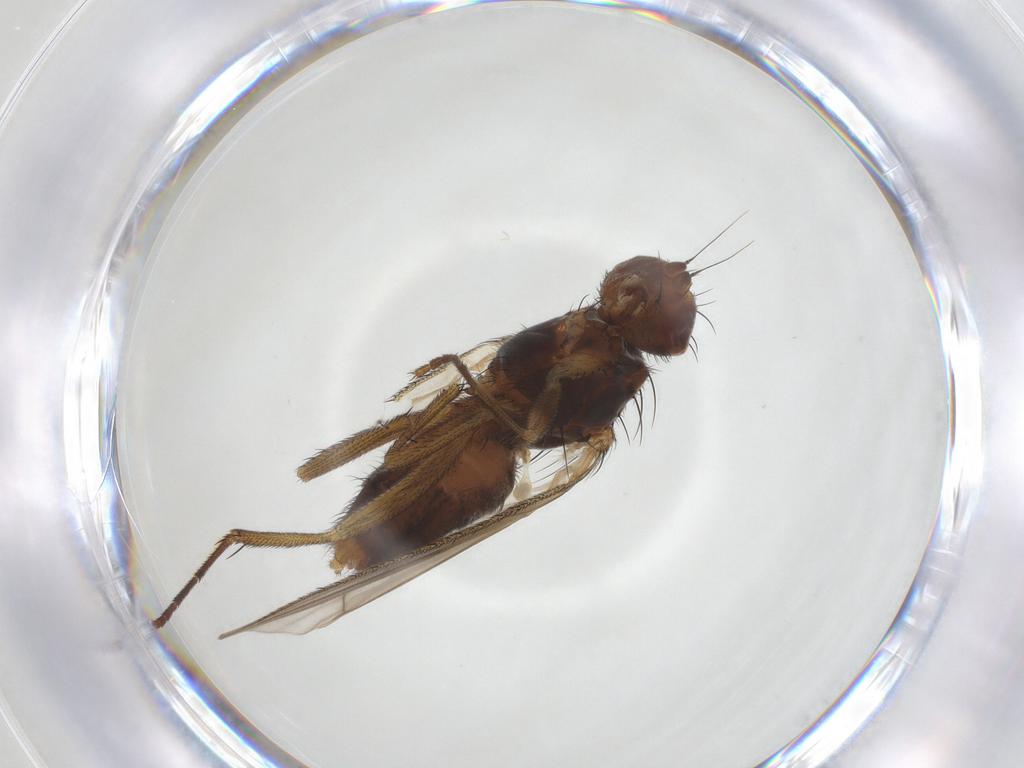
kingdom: Animalia
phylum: Arthropoda
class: Insecta
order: Diptera
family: Heleomyzidae
